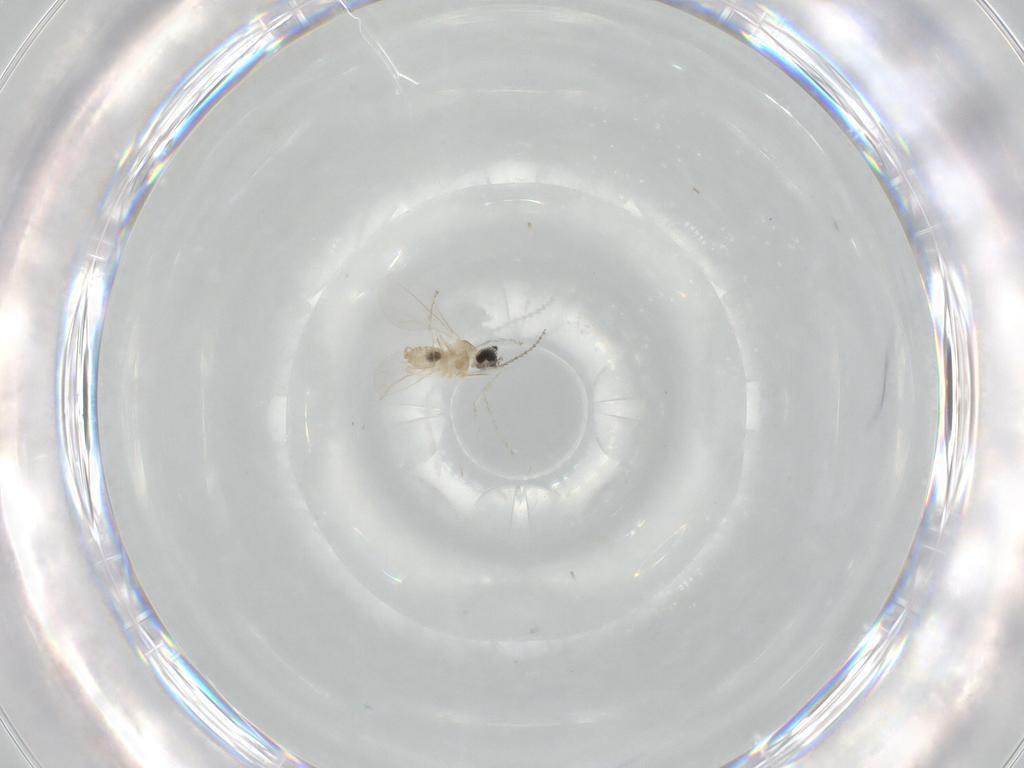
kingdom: Animalia
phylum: Arthropoda
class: Insecta
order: Diptera
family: Cecidomyiidae
